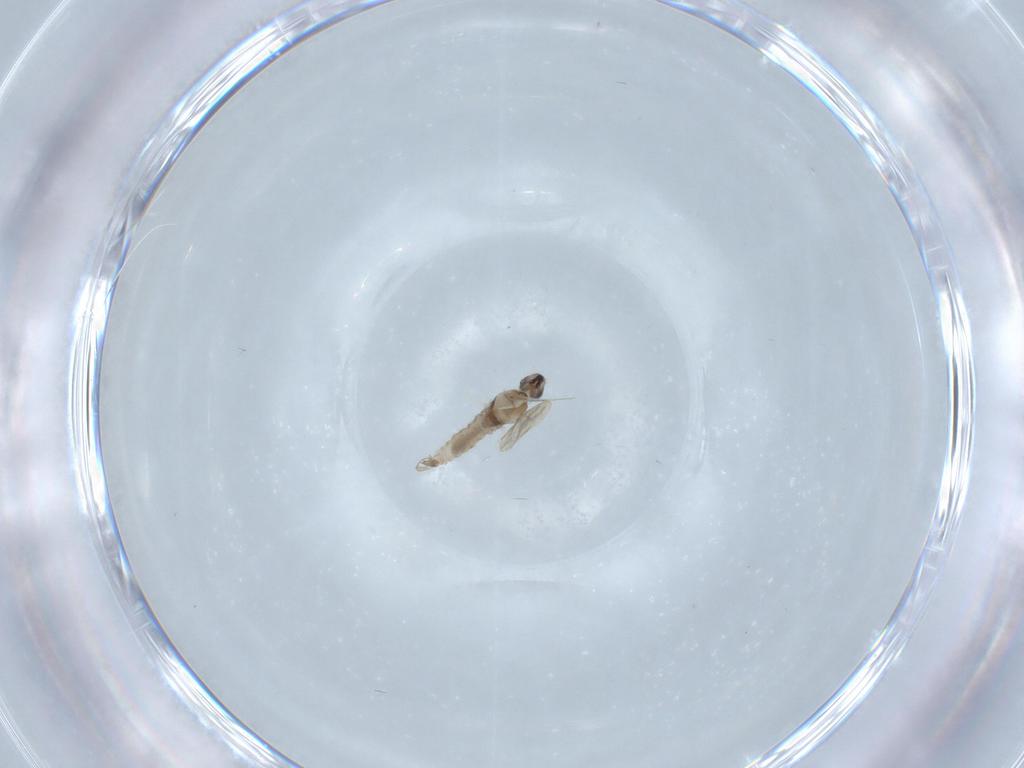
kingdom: Animalia
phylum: Arthropoda
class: Insecta
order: Diptera
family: Cecidomyiidae
